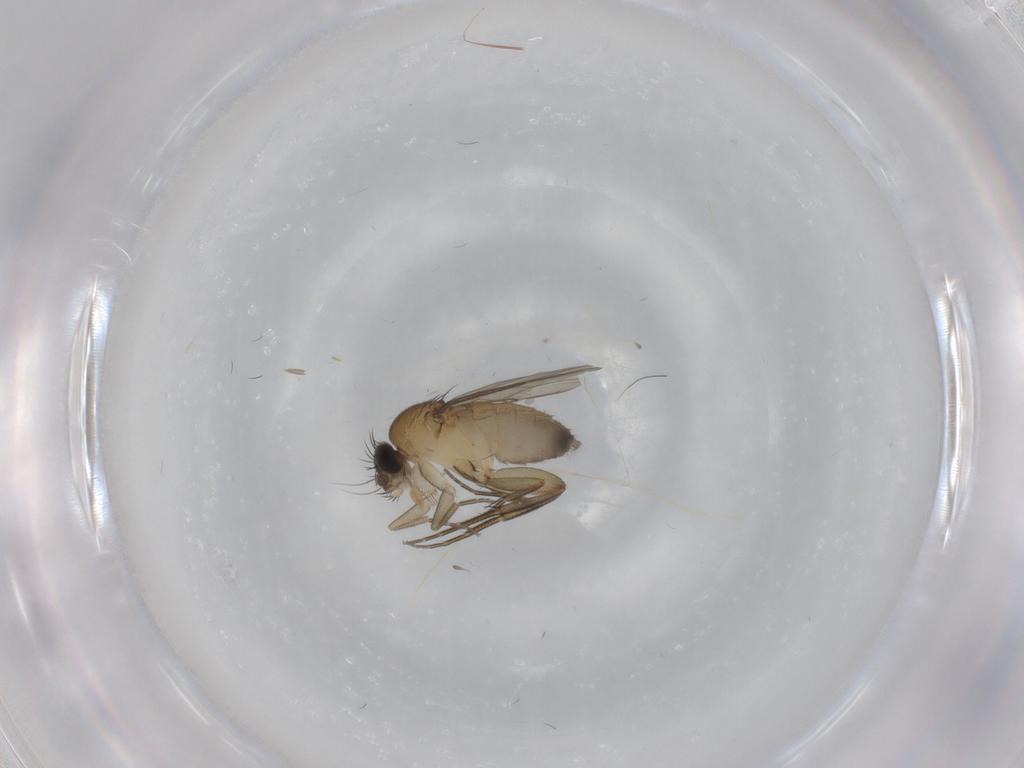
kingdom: Animalia
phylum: Arthropoda
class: Insecta
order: Diptera
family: Phoridae
